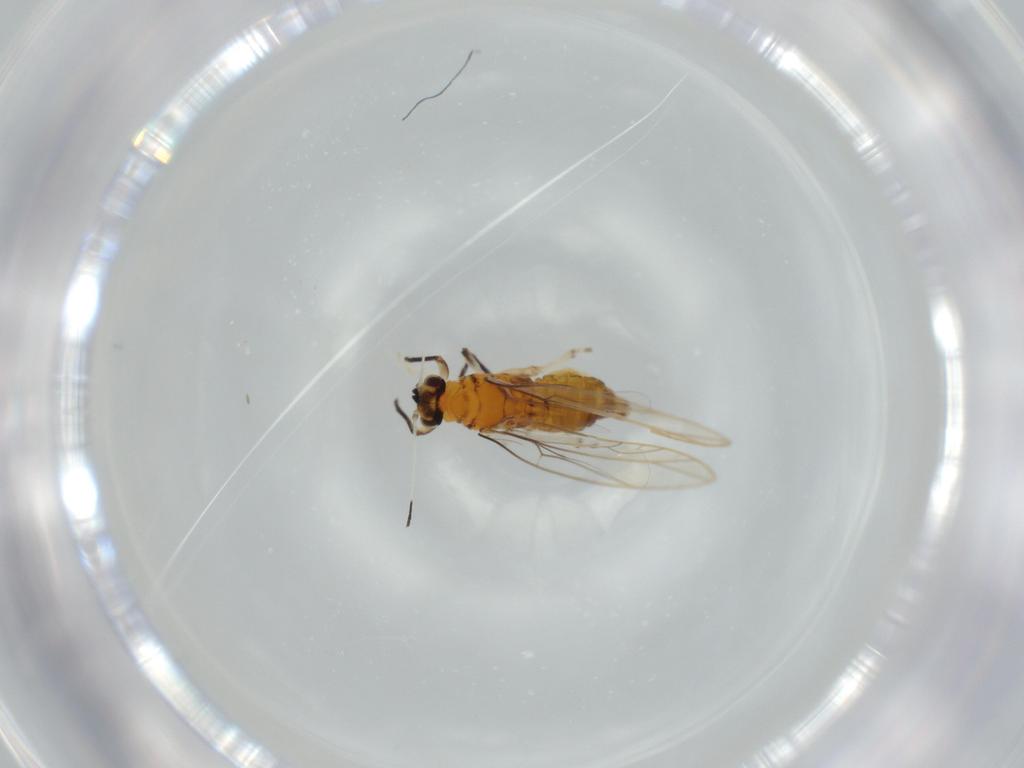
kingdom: Animalia
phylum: Arthropoda
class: Insecta
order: Hemiptera
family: Triozidae
